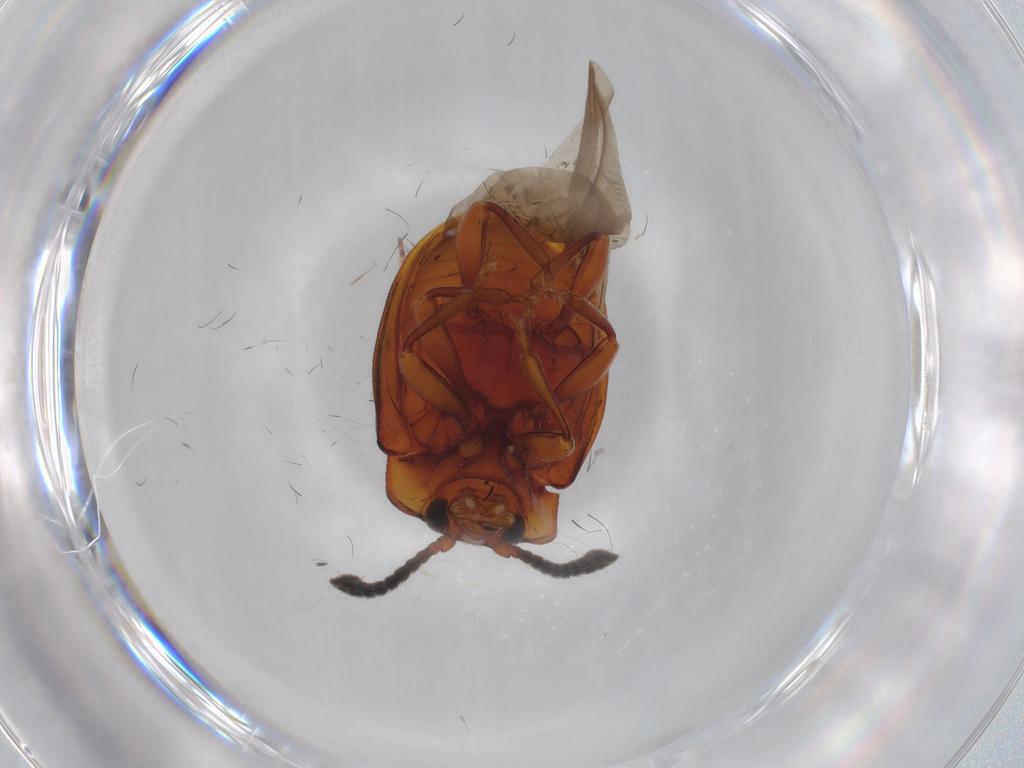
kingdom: Animalia
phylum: Arthropoda
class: Insecta
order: Coleoptera
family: Endomychidae
